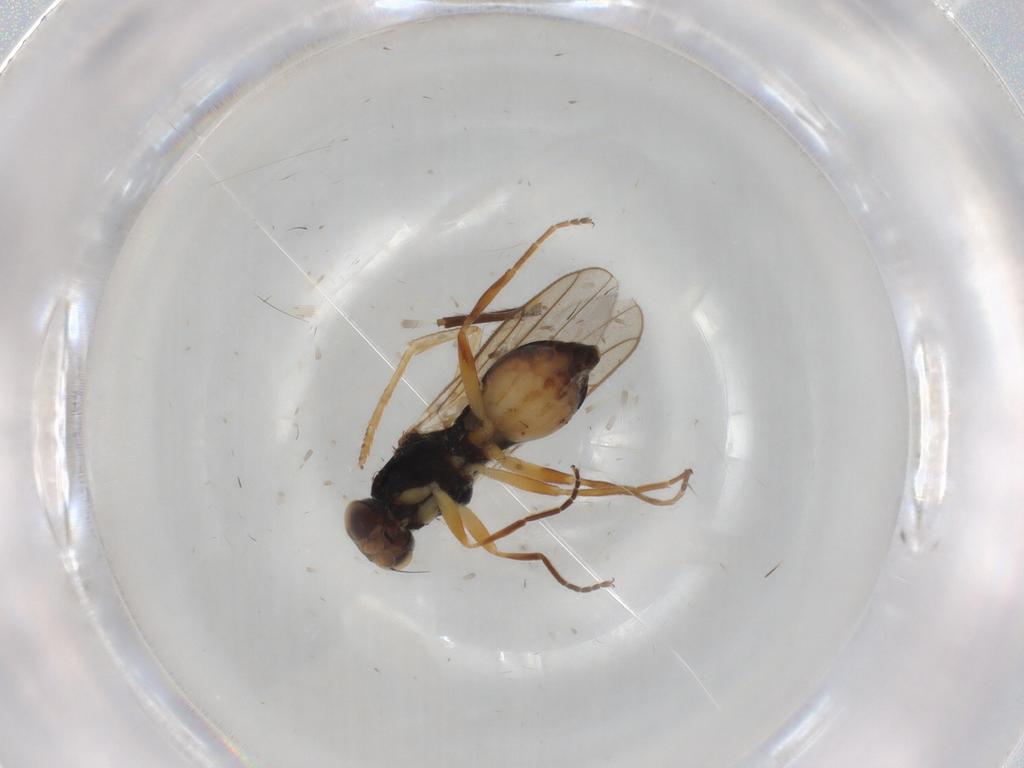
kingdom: Animalia
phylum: Arthropoda
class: Insecta
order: Diptera
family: Chloropidae
